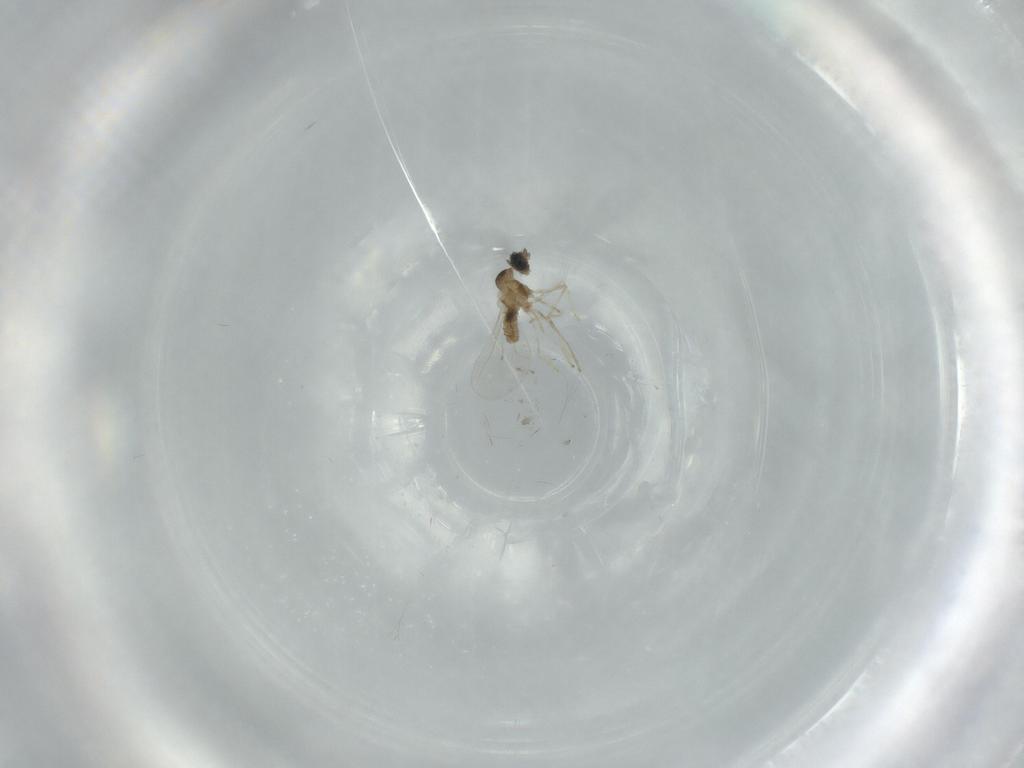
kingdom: Animalia
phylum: Arthropoda
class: Insecta
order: Diptera
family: Cecidomyiidae
